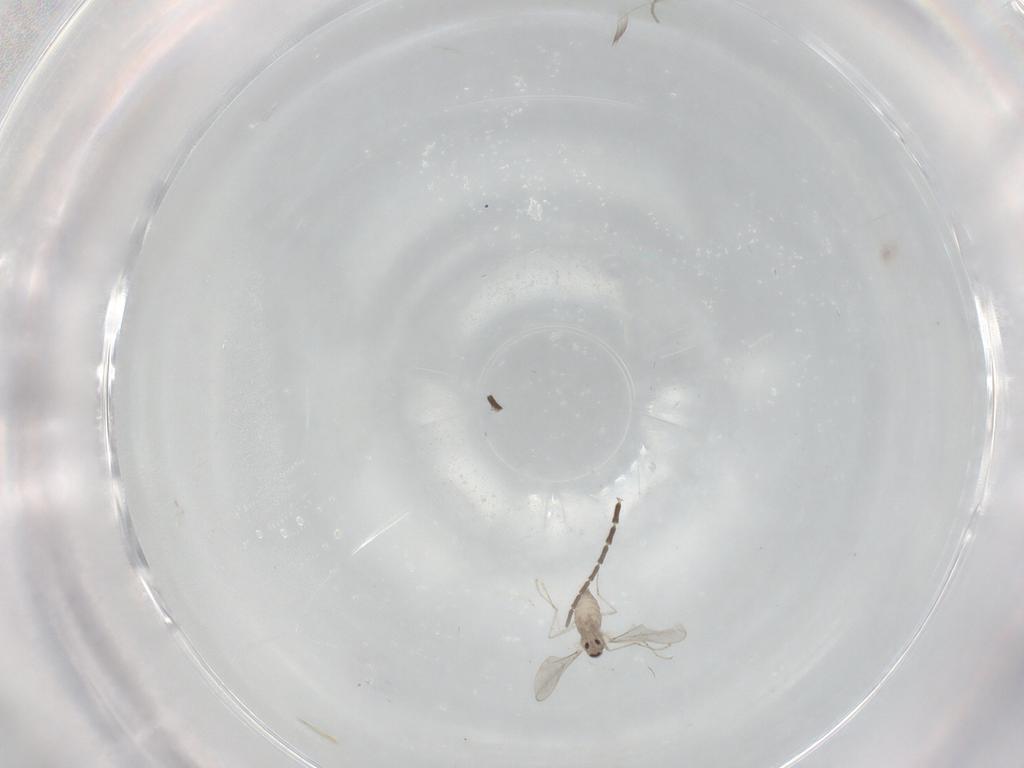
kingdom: Animalia
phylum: Arthropoda
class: Insecta
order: Diptera
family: Cecidomyiidae
